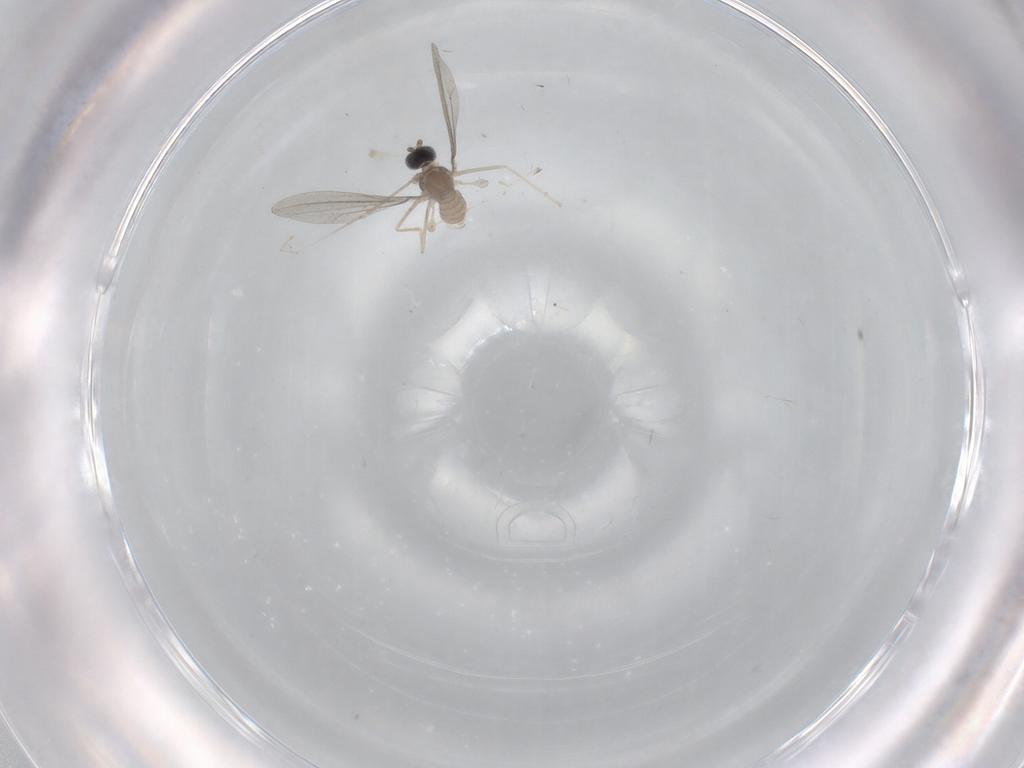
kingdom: Animalia
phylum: Arthropoda
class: Insecta
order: Diptera
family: Cecidomyiidae
